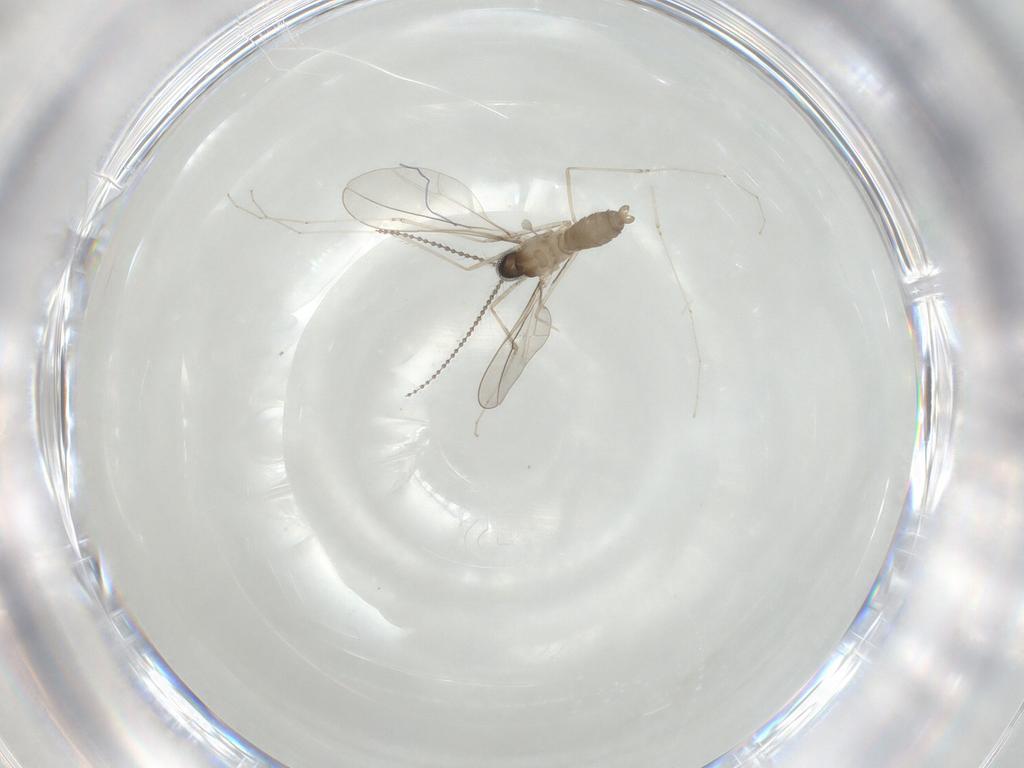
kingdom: Animalia
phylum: Arthropoda
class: Insecta
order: Diptera
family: Cecidomyiidae
